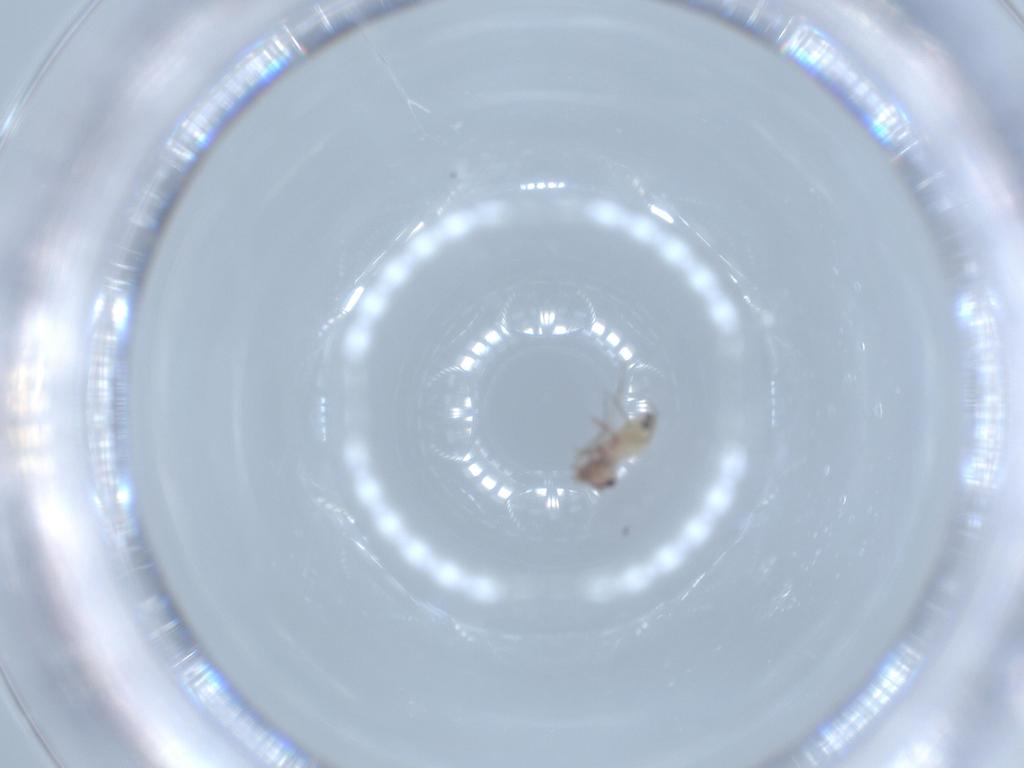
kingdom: Animalia
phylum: Arthropoda
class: Insecta
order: Psocodea
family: Lepidopsocidae
